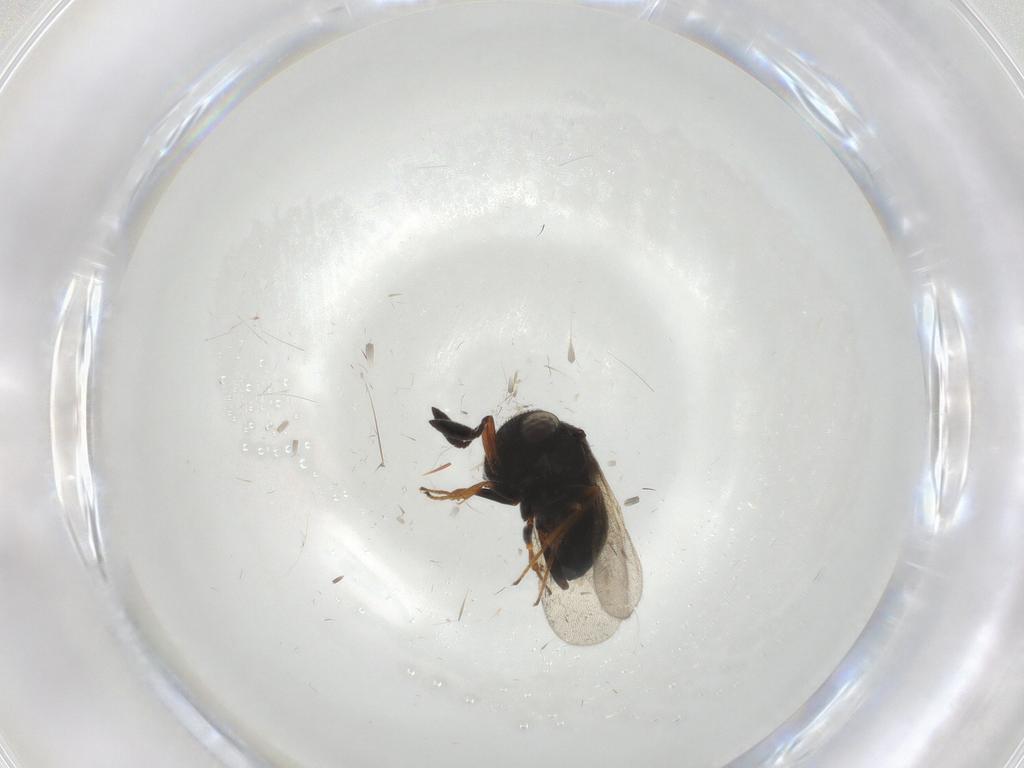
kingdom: Animalia
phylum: Arthropoda
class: Insecta
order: Hymenoptera
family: Scelionidae
